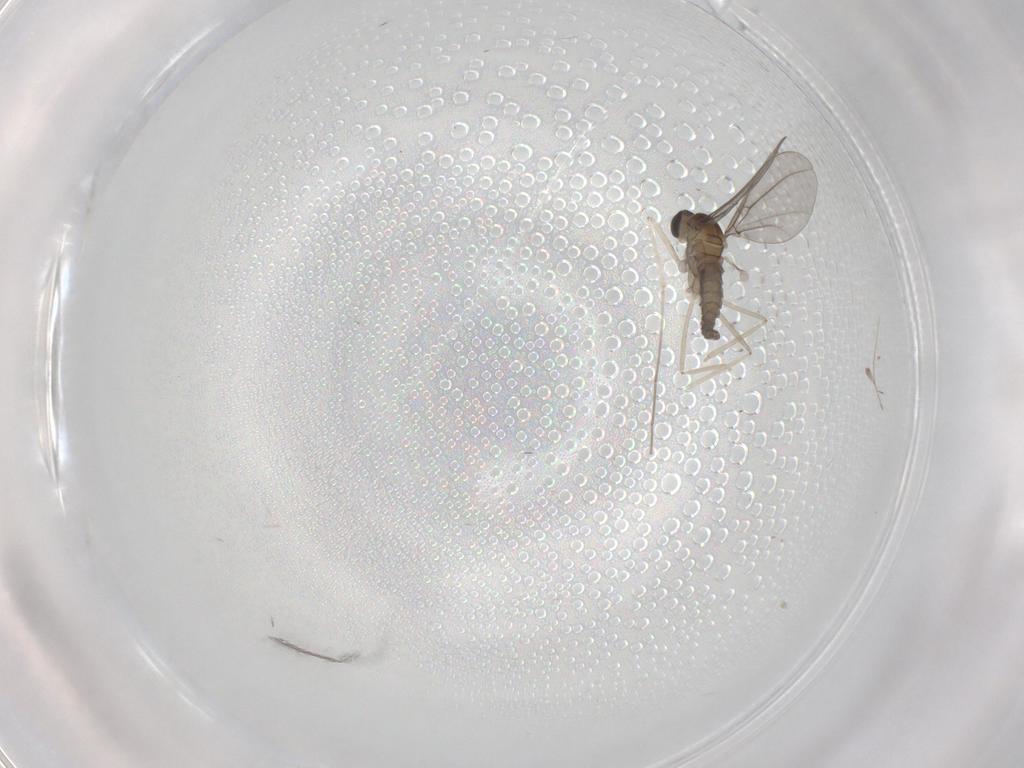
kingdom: Animalia
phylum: Arthropoda
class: Insecta
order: Diptera
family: Cecidomyiidae
